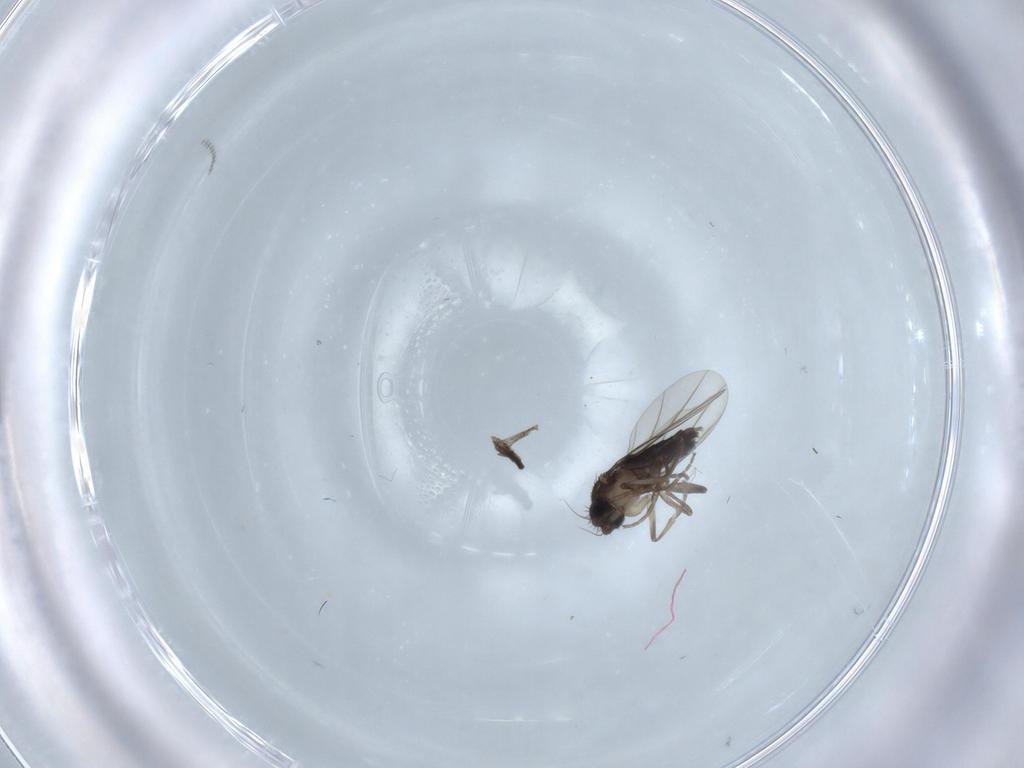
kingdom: Animalia
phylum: Arthropoda
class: Insecta
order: Diptera
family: Phoridae
